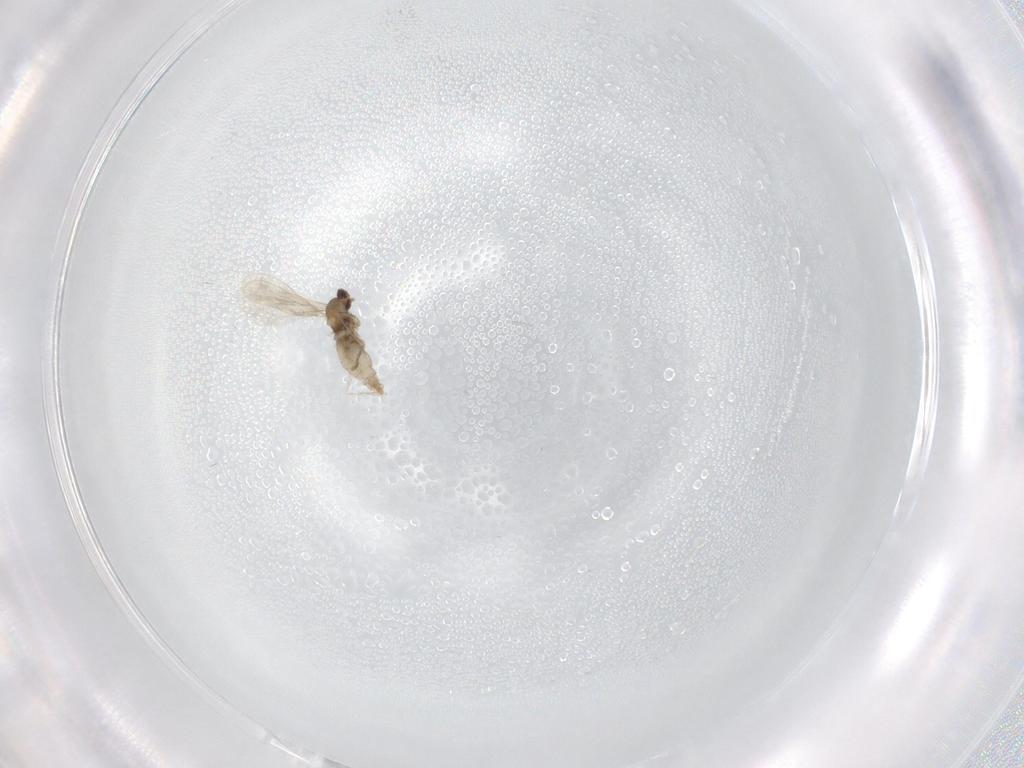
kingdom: Animalia
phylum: Arthropoda
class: Insecta
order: Diptera
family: Cecidomyiidae
